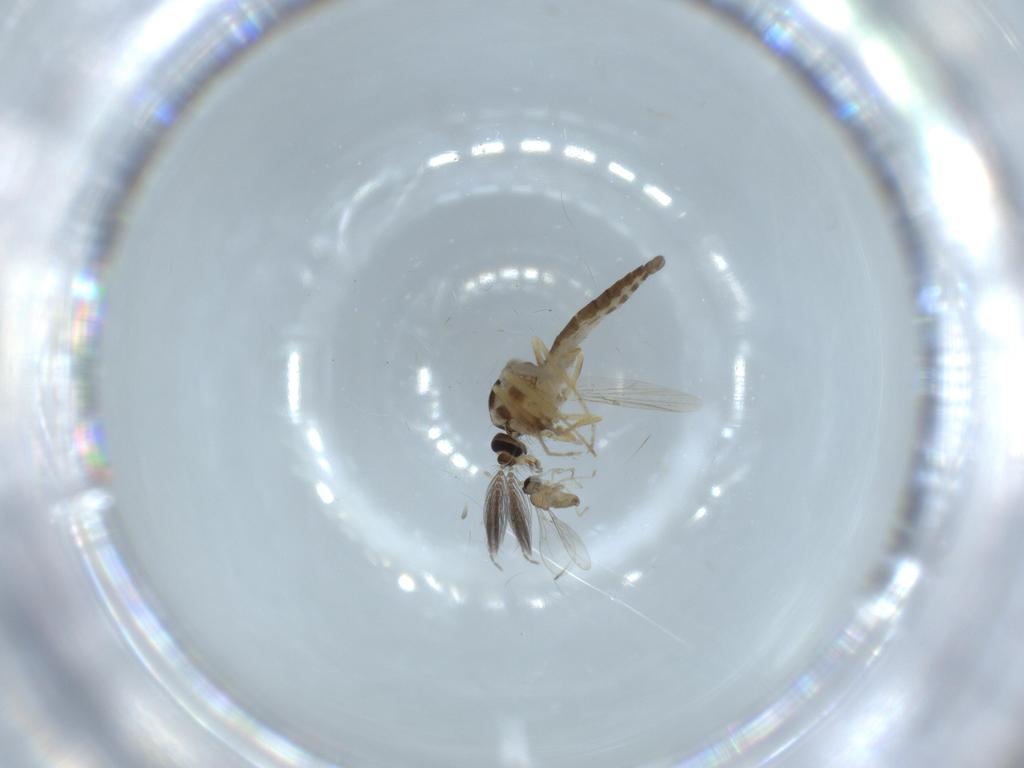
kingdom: Animalia
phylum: Arthropoda
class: Insecta
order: Diptera
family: Ceratopogonidae
